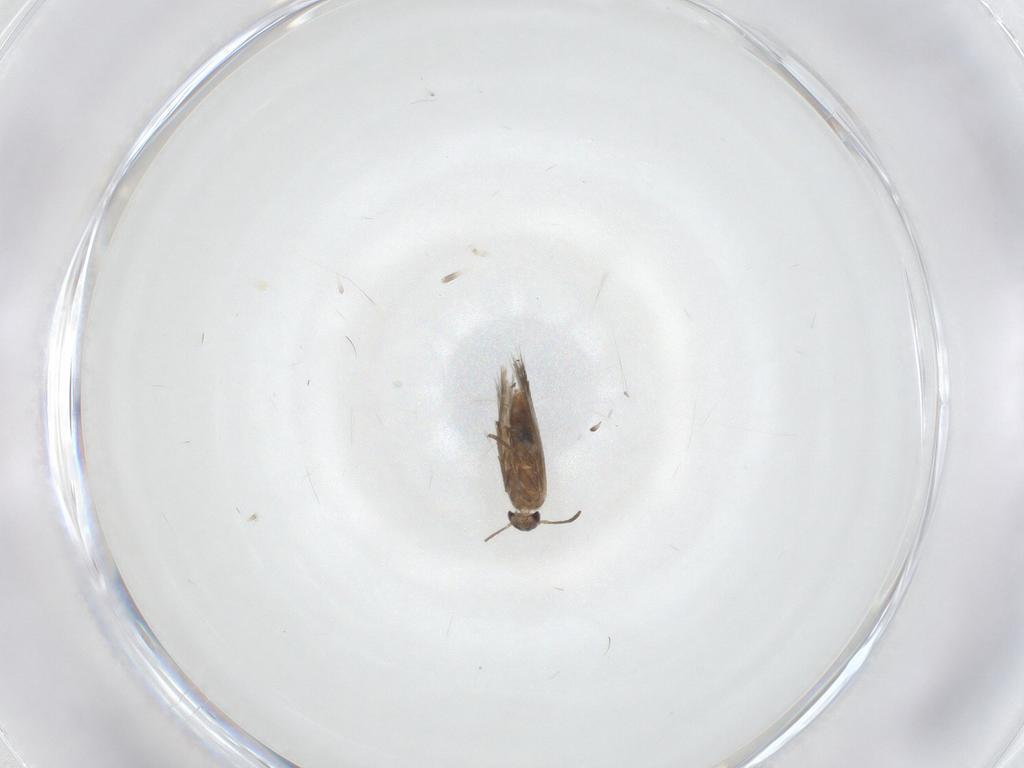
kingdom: Animalia
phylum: Arthropoda
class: Insecta
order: Lepidoptera
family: Heliozelidae
